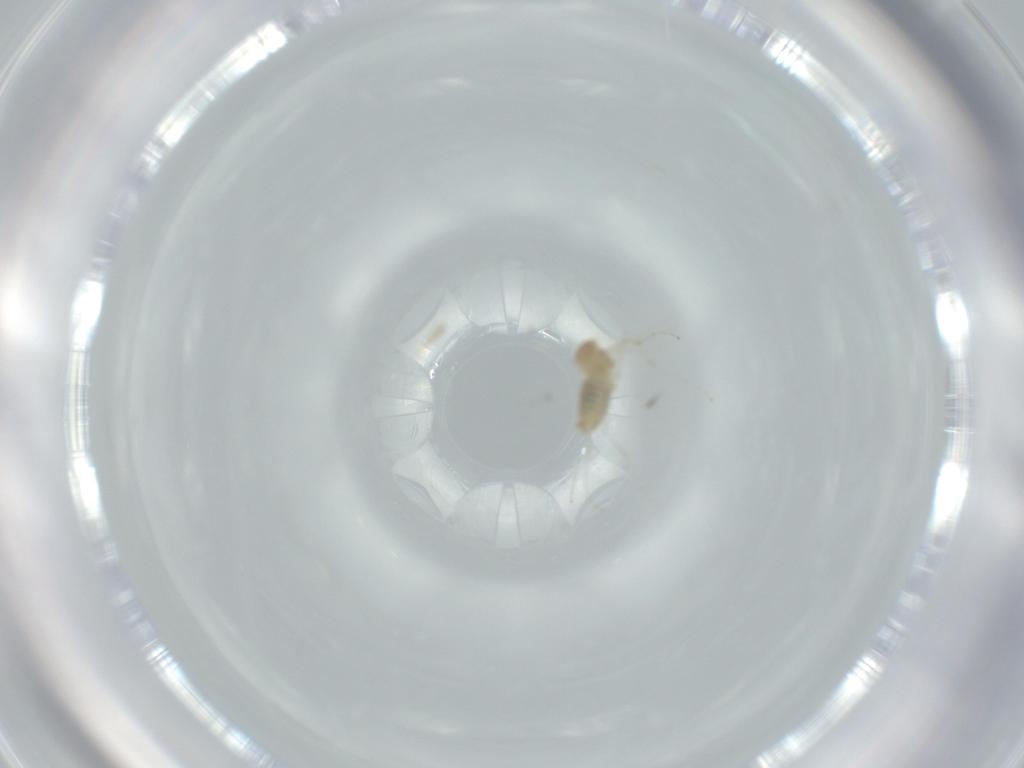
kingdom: Animalia
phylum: Arthropoda
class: Insecta
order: Diptera
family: Cecidomyiidae
